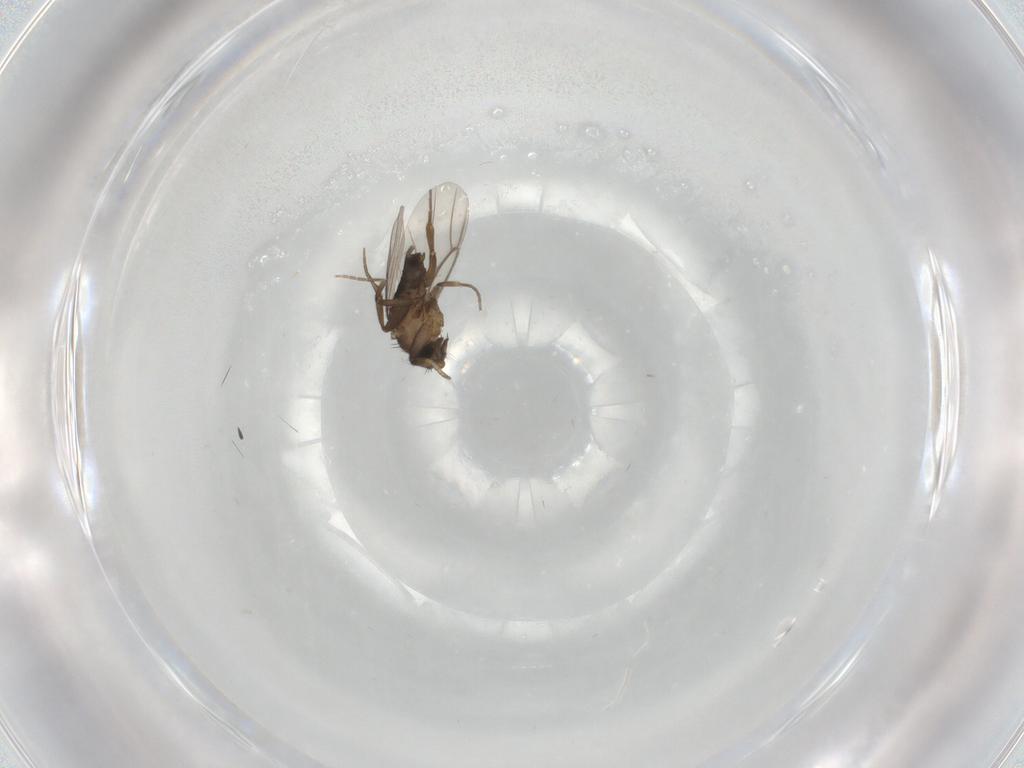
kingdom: Animalia
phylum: Arthropoda
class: Insecta
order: Diptera
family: Phoridae
